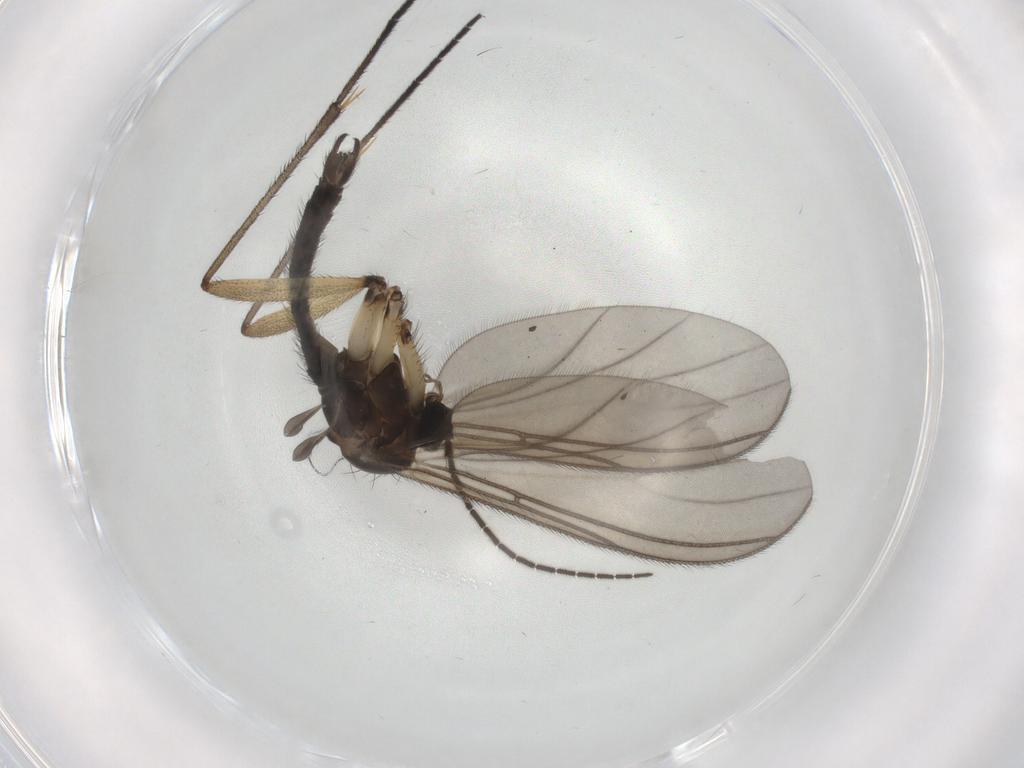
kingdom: Animalia
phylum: Arthropoda
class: Insecta
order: Diptera
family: Sciaridae
